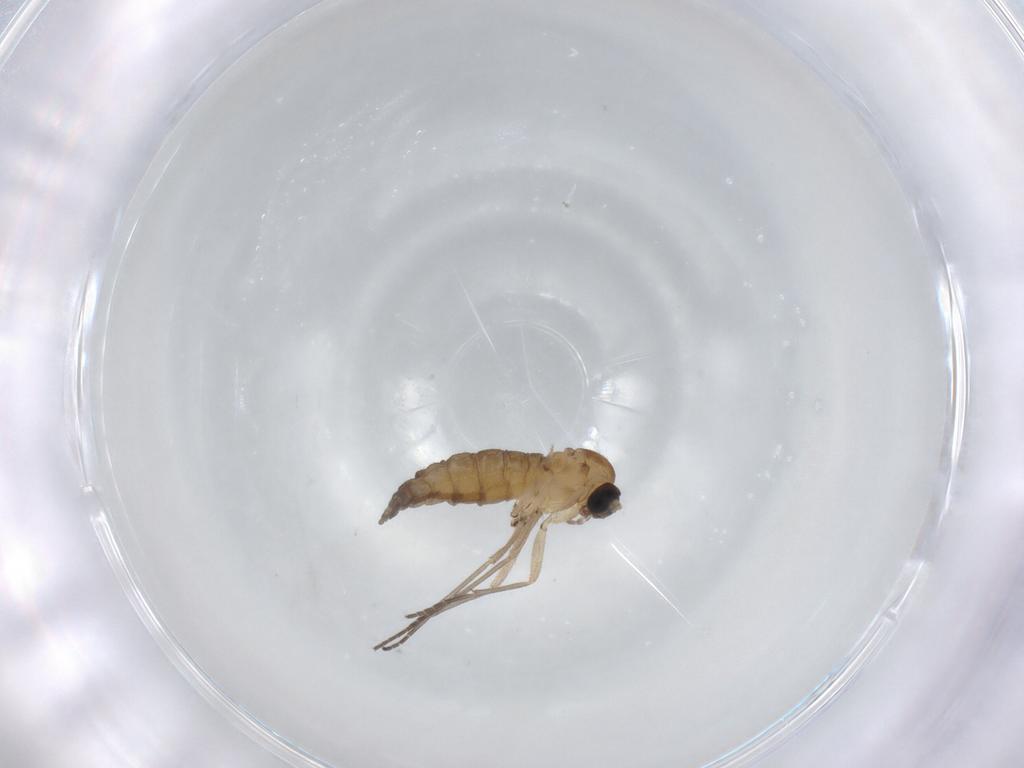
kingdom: Animalia
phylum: Arthropoda
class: Insecta
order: Diptera
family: Sciaridae
